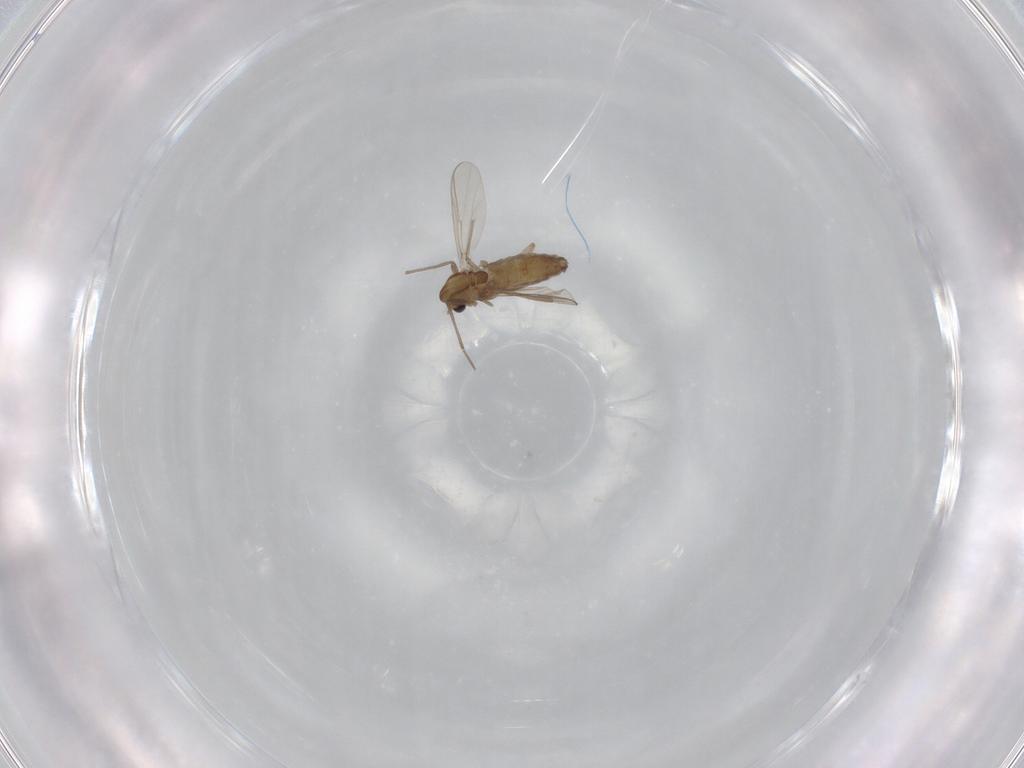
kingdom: Animalia
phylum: Arthropoda
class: Insecta
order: Diptera
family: Chironomidae
